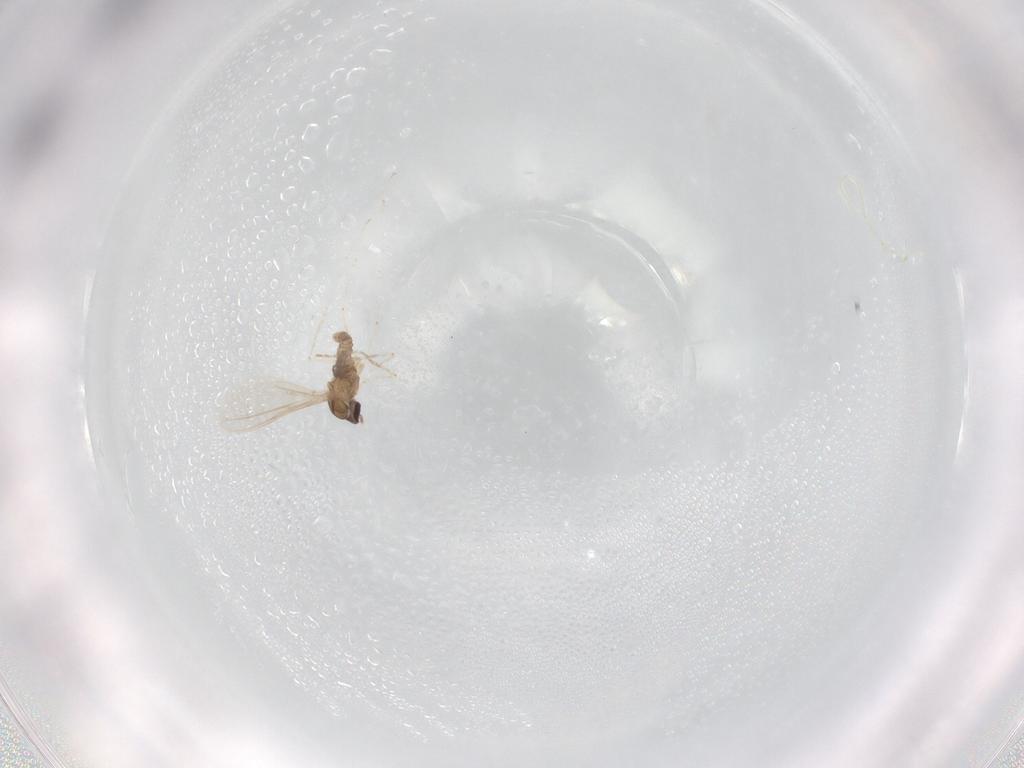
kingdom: Animalia
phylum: Arthropoda
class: Insecta
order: Diptera
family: Cecidomyiidae
